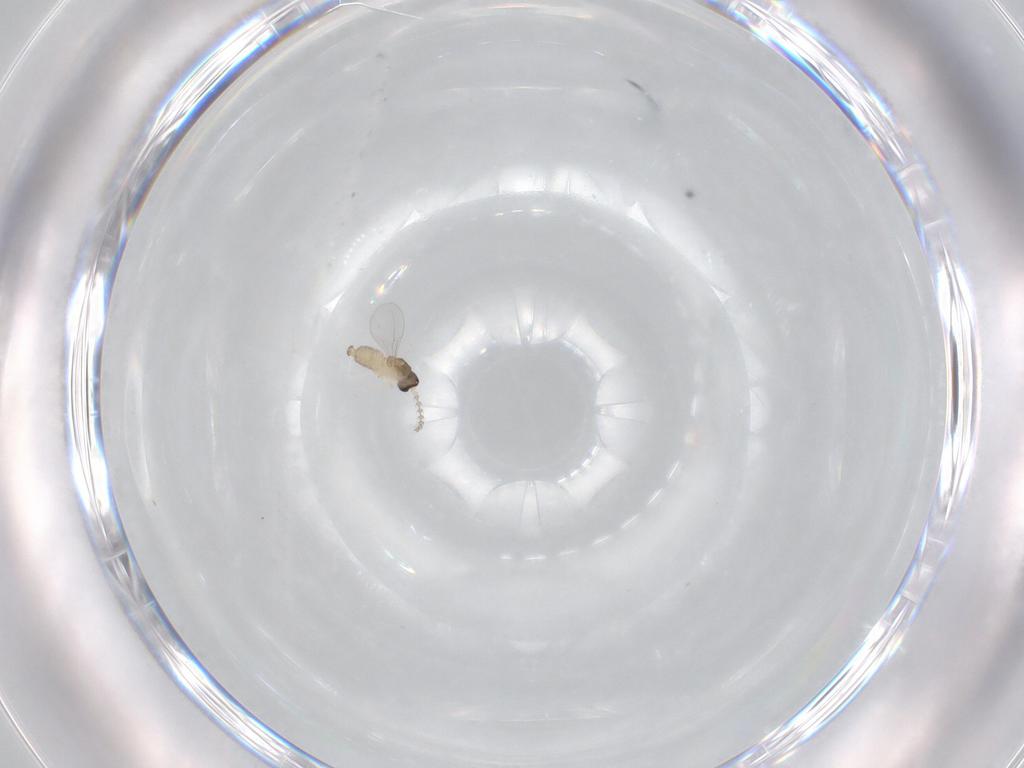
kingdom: Animalia
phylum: Arthropoda
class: Insecta
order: Diptera
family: Cecidomyiidae
